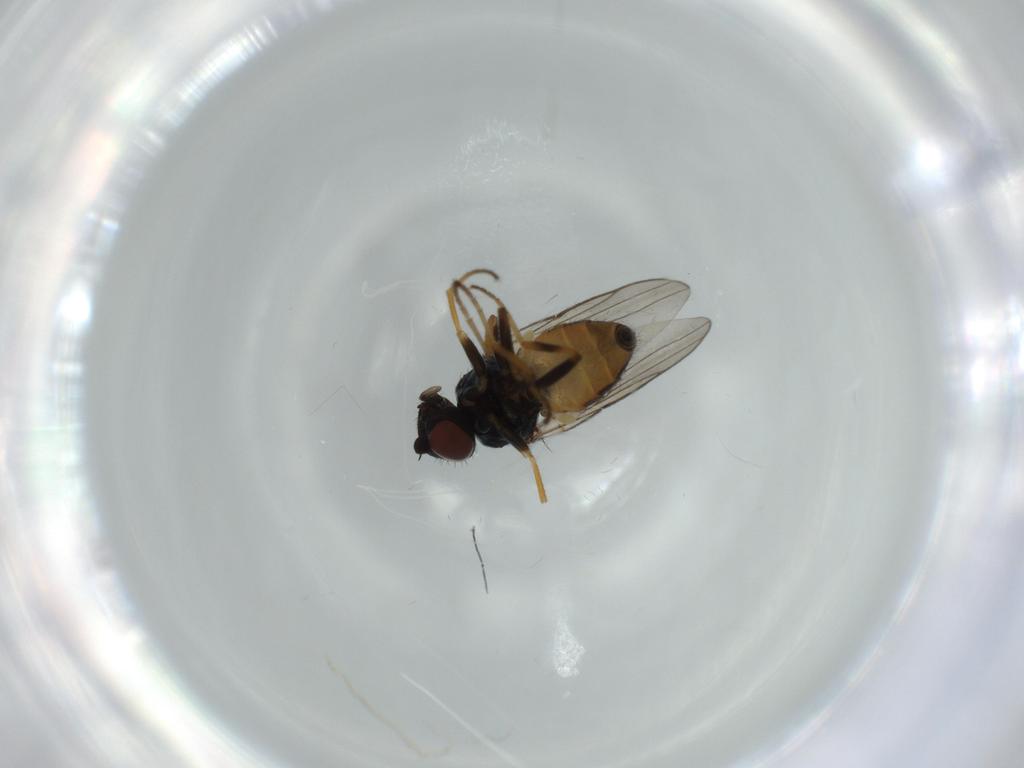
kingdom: Animalia
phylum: Arthropoda
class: Insecta
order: Diptera
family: Chloropidae
